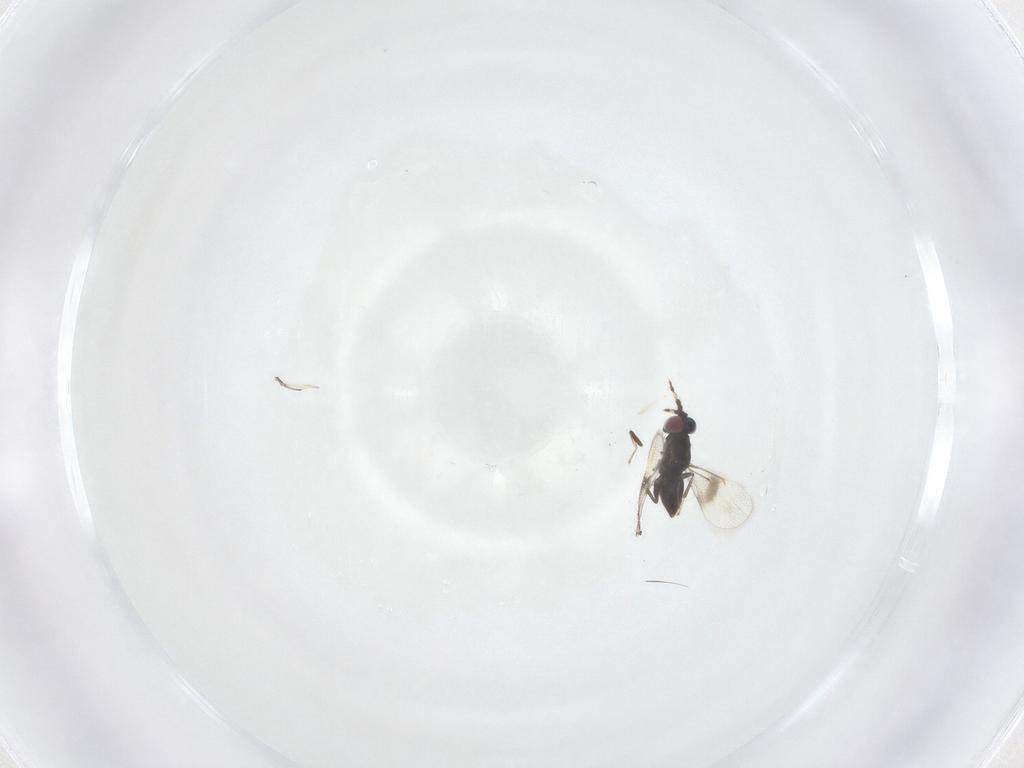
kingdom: Animalia
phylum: Arthropoda
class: Insecta
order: Hymenoptera
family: Eulophidae
